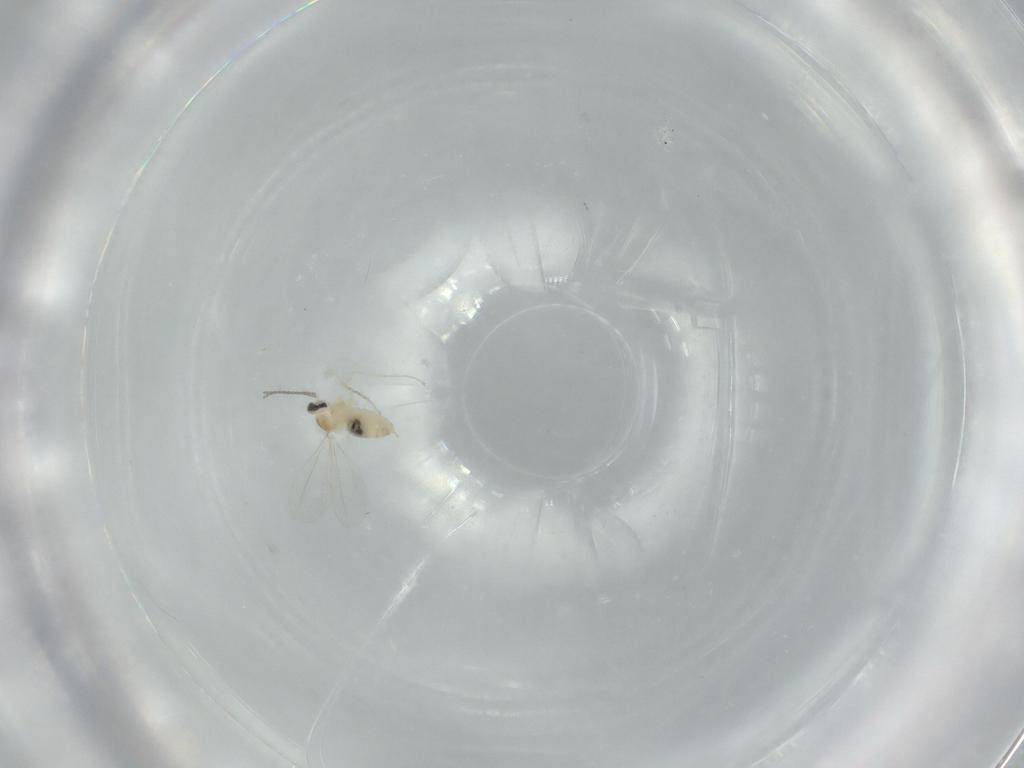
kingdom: Animalia
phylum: Arthropoda
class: Insecta
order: Diptera
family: Cecidomyiidae
